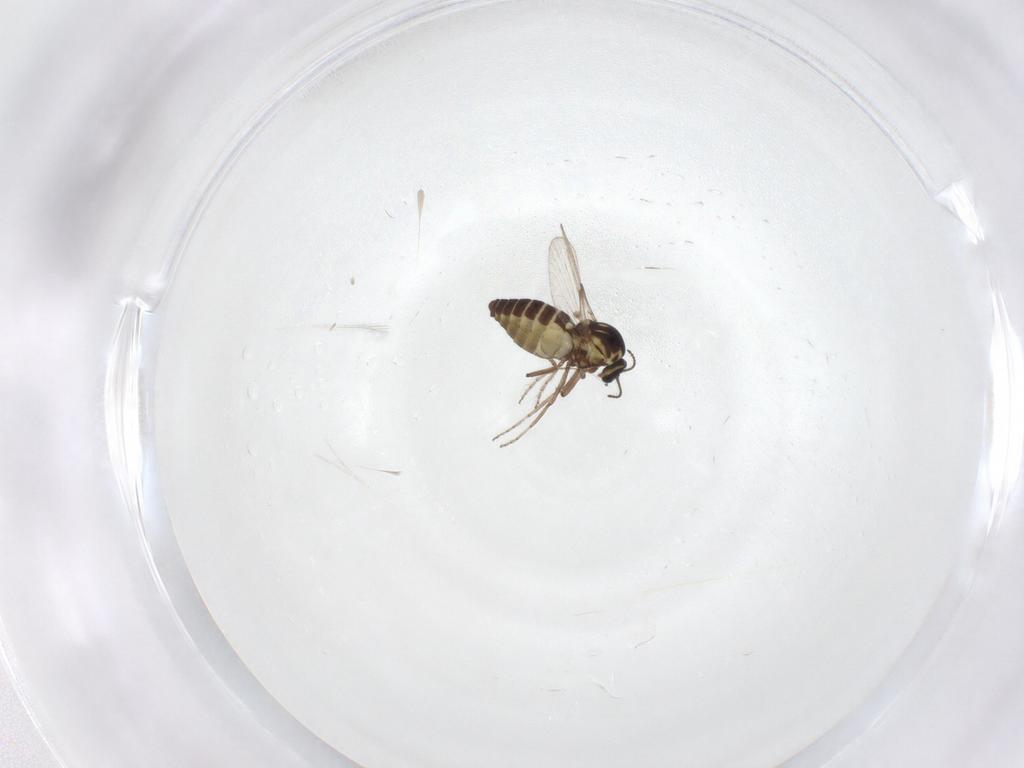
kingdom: Animalia
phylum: Arthropoda
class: Insecta
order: Diptera
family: Ceratopogonidae
